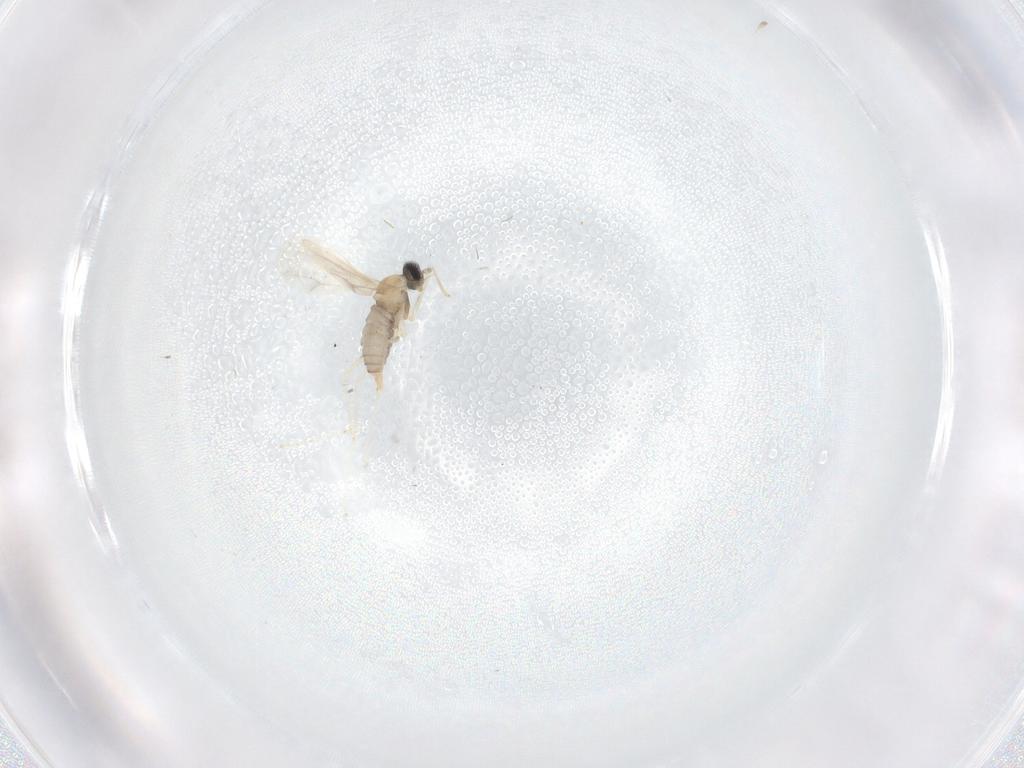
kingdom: Animalia
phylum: Arthropoda
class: Insecta
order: Diptera
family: Cecidomyiidae
